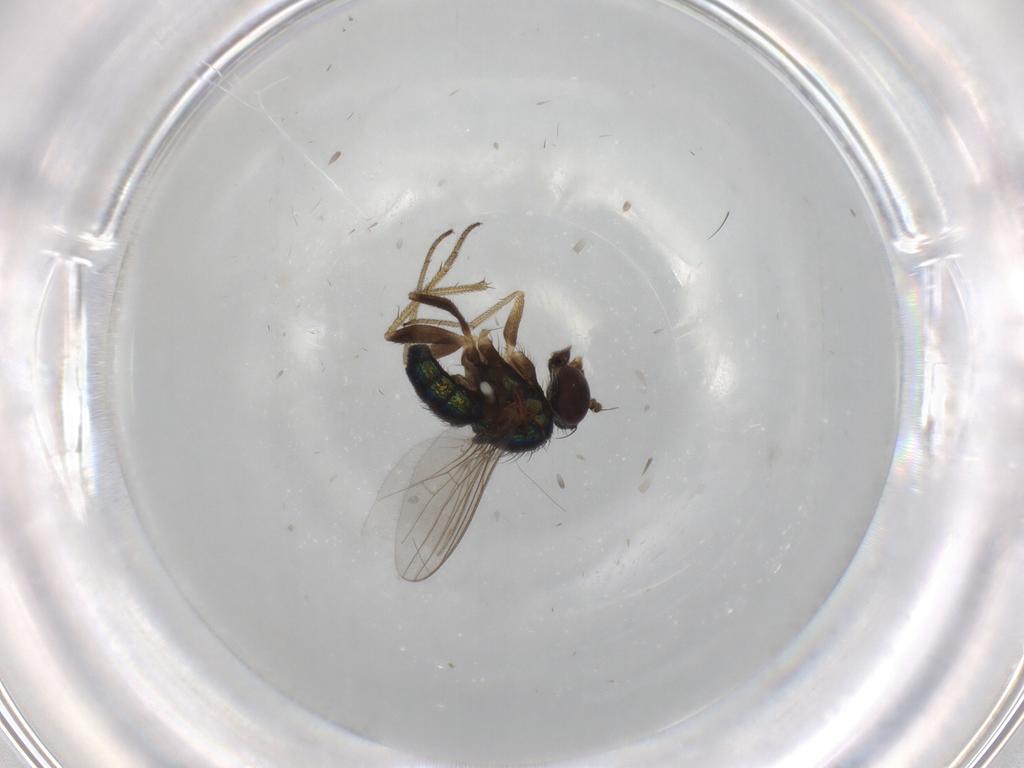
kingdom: Animalia
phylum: Arthropoda
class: Insecta
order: Diptera
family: Dolichopodidae
